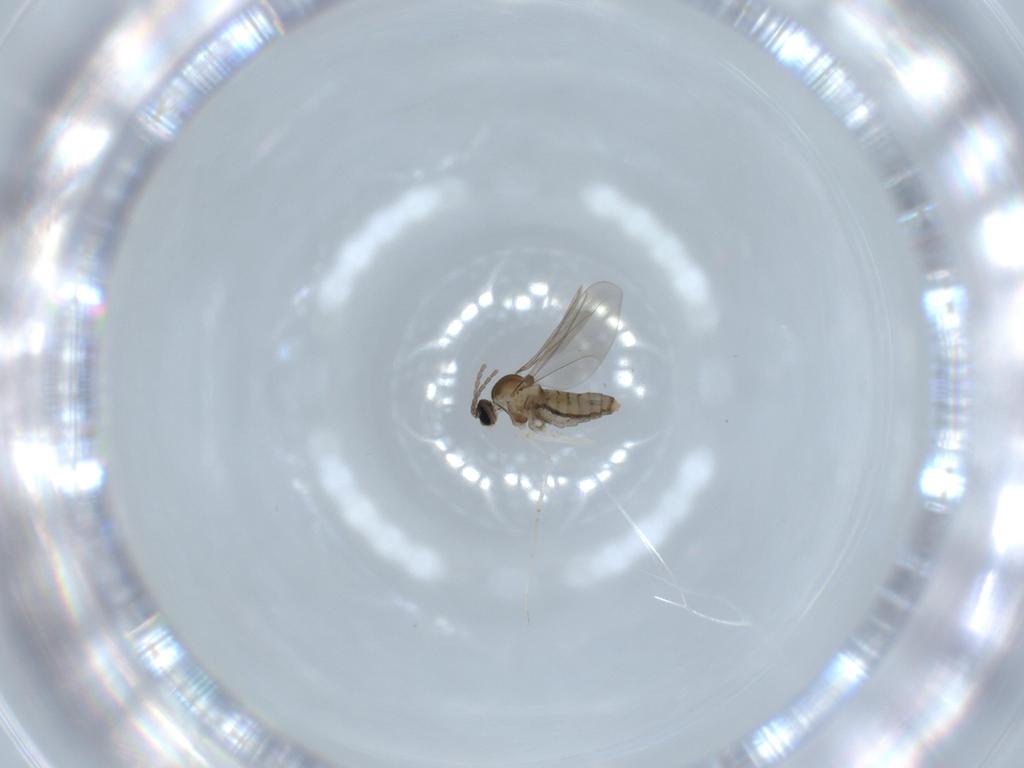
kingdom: Animalia
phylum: Arthropoda
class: Insecta
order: Diptera
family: Cecidomyiidae
